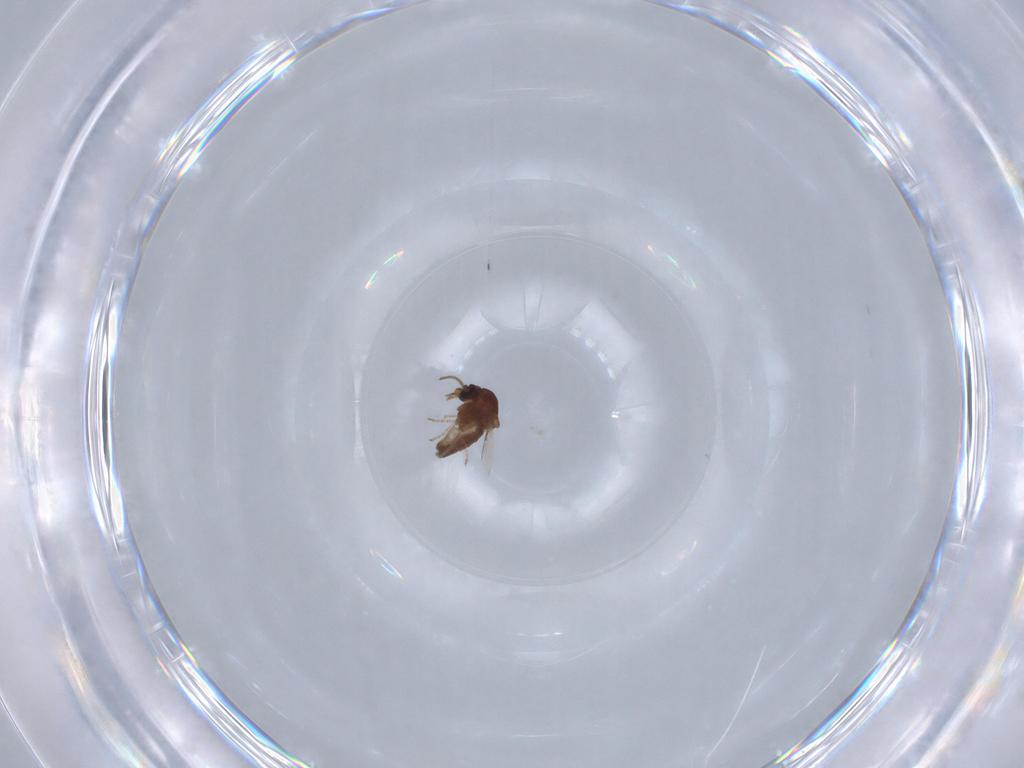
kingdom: Animalia
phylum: Arthropoda
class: Insecta
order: Diptera
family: Ceratopogonidae
